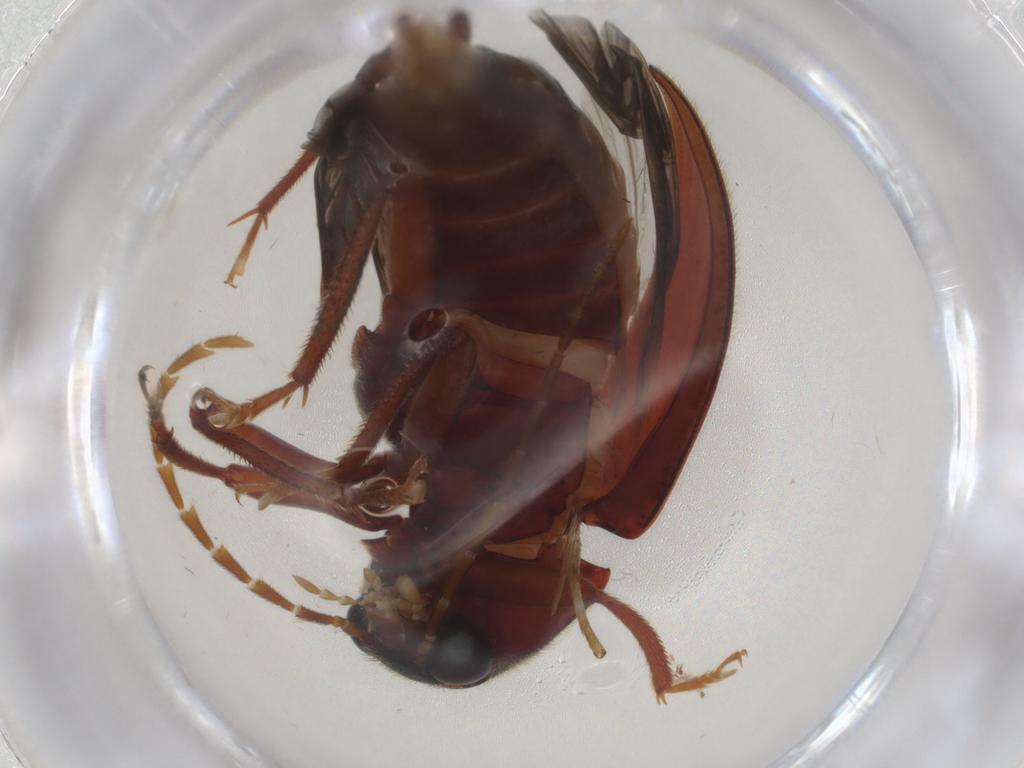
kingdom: Animalia
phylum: Arthropoda
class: Insecta
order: Coleoptera
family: Ptilodactylidae
